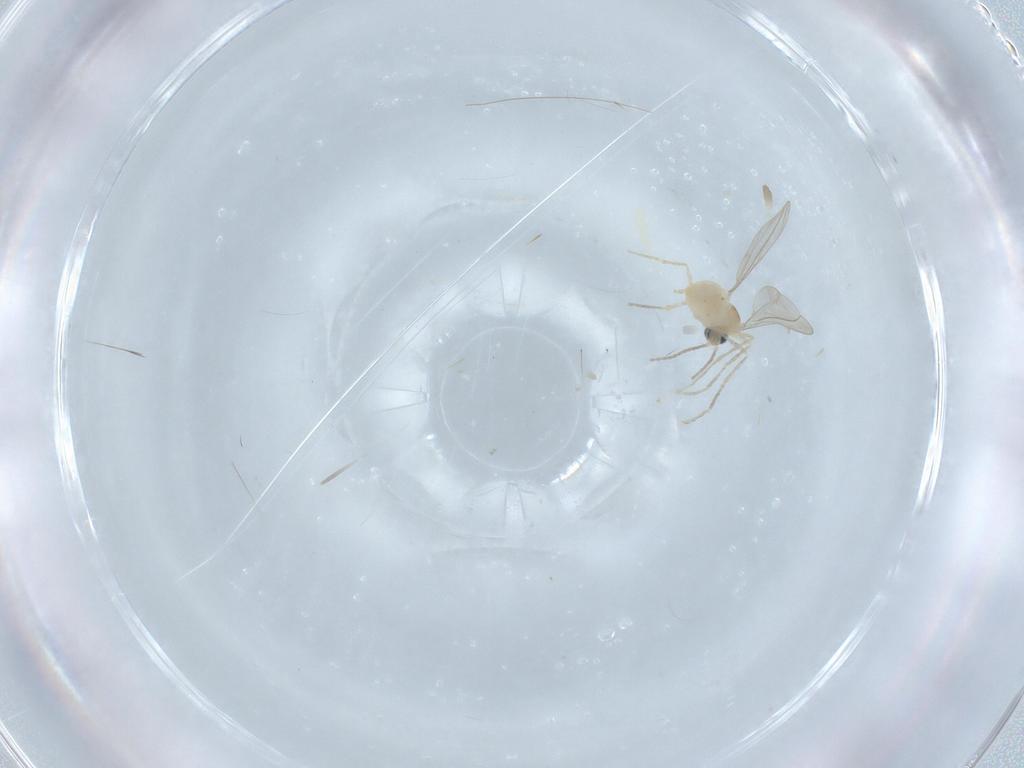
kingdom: Animalia
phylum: Arthropoda
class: Insecta
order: Diptera
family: Cecidomyiidae
